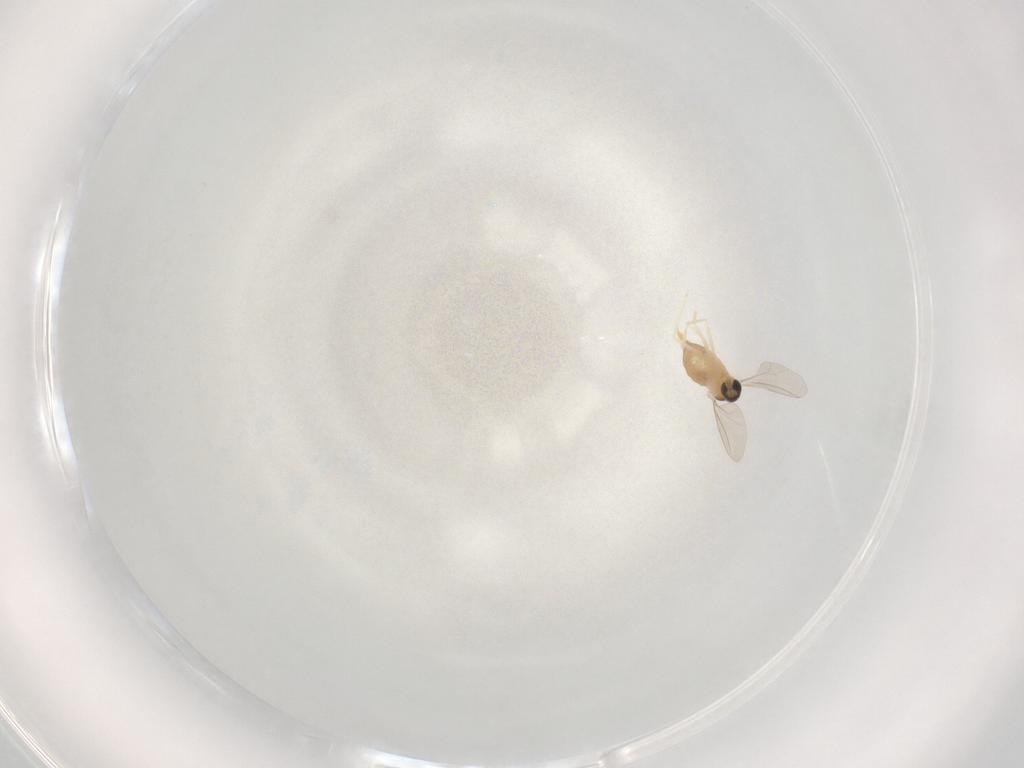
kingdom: Animalia
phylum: Arthropoda
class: Insecta
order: Diptera
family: Cecidomyiidae
